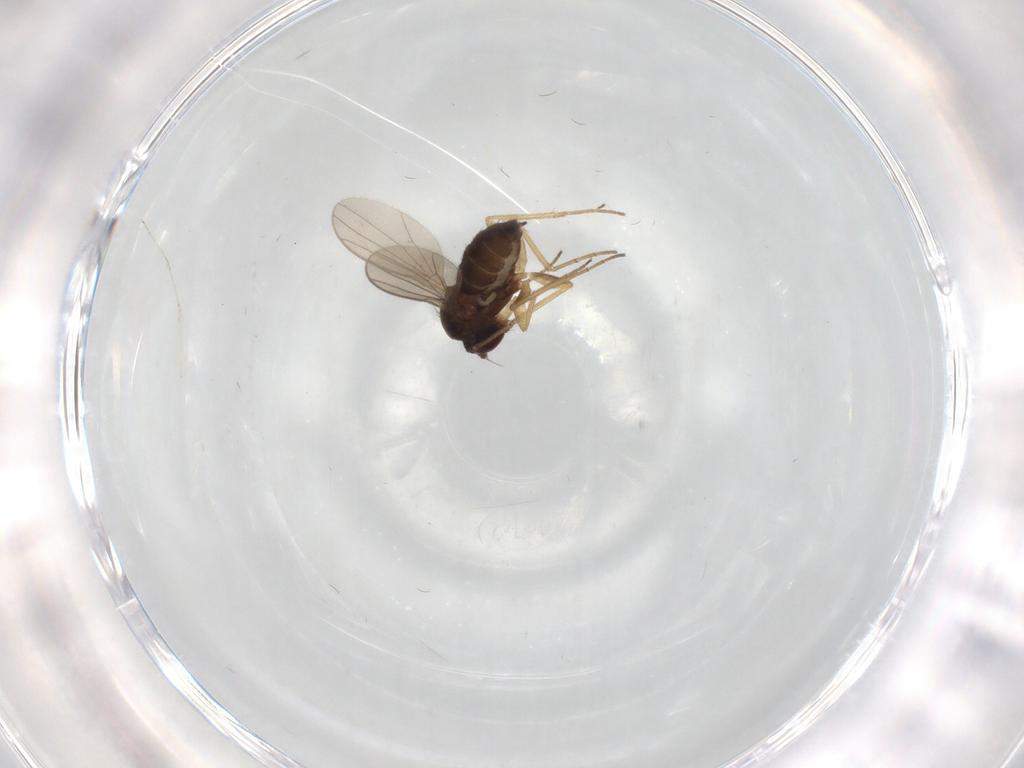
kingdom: Animalia
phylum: Arthropoda
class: Insecta
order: Diptera
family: Dolichopodidae
